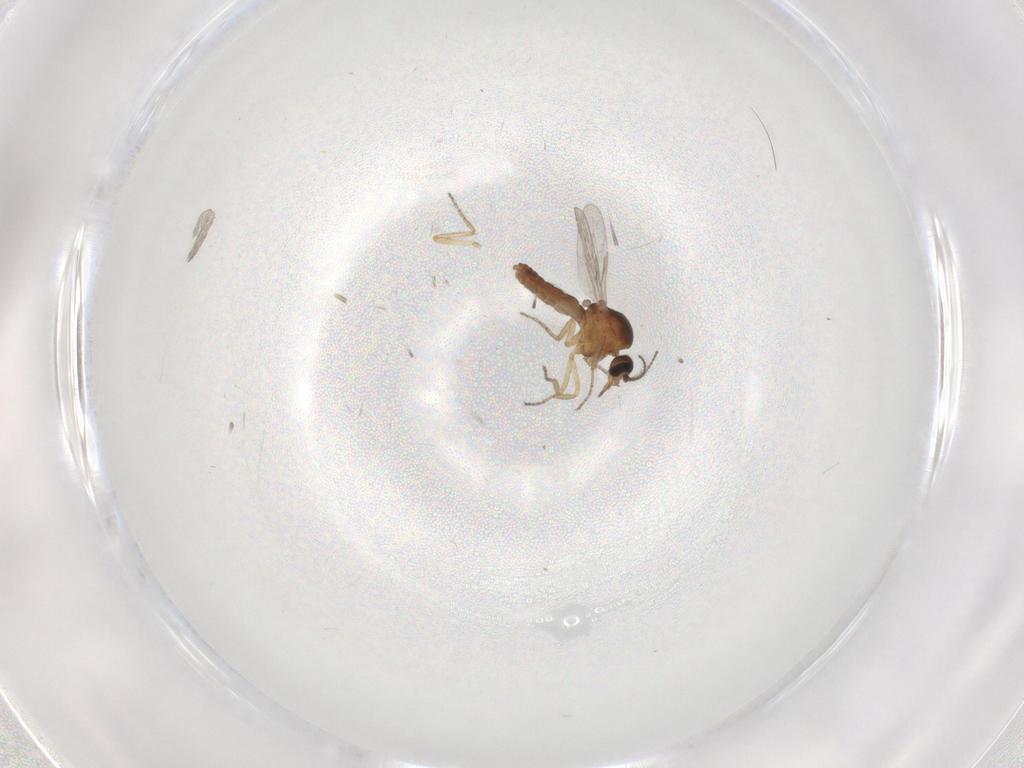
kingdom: Animalia
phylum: Arthropoda
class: Insecta
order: Diptera
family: Ceratopogonidae
